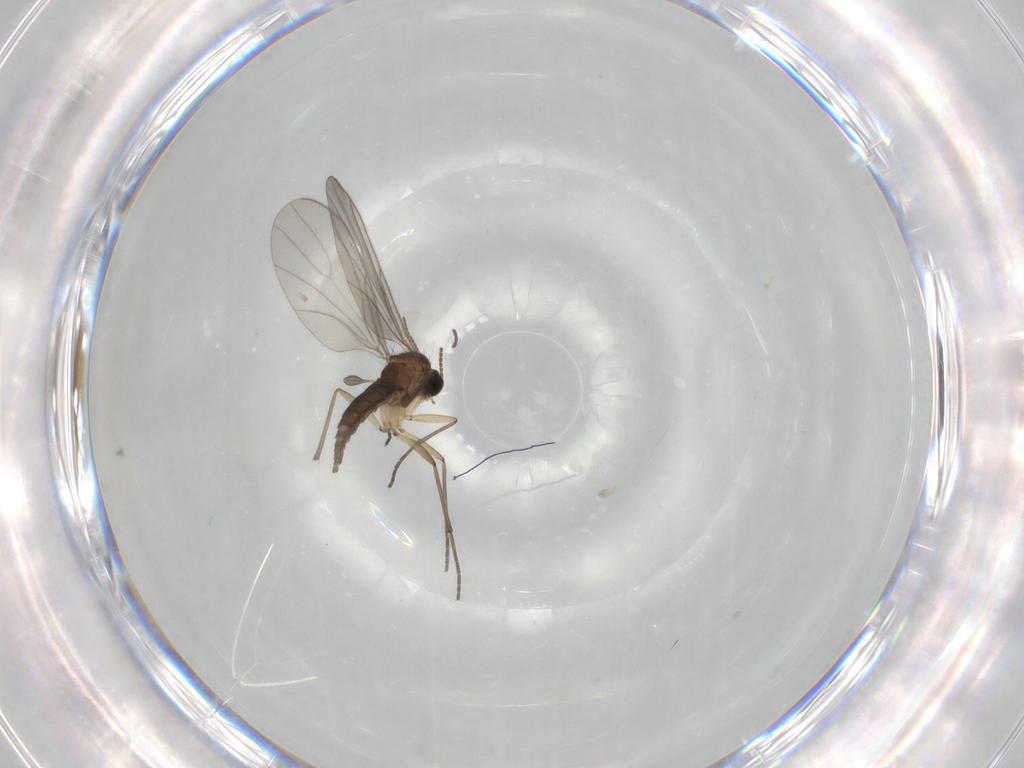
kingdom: Animalia
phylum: Arthropoda
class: Insecta
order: Diptera
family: Sciaridae
